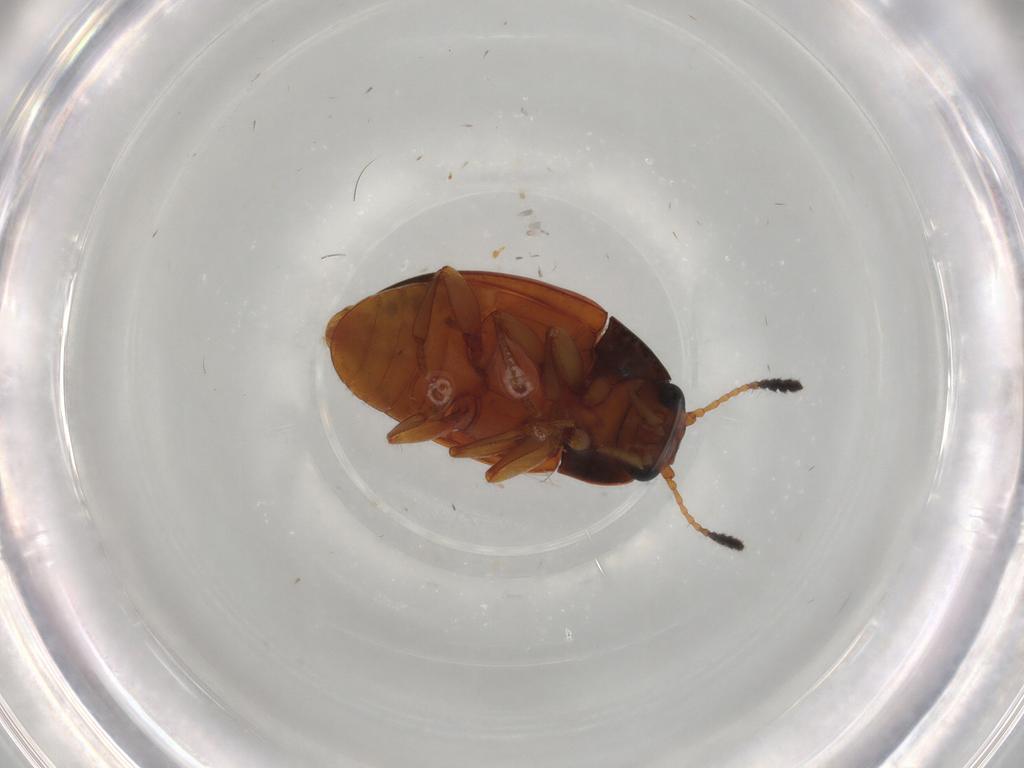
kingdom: Animalia
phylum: Arthropoda
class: Insecta
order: Coleoptera
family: Erotylidae
